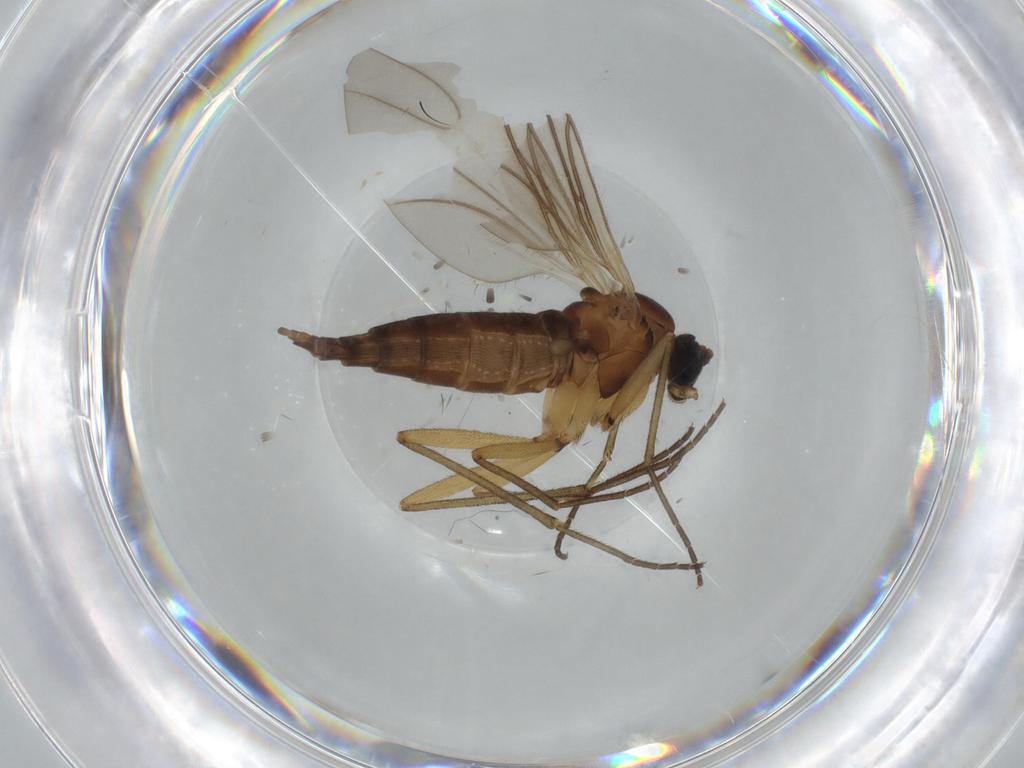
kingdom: Animalia
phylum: Arthropoda
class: Insecta
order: Diptera
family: Sciaridae
